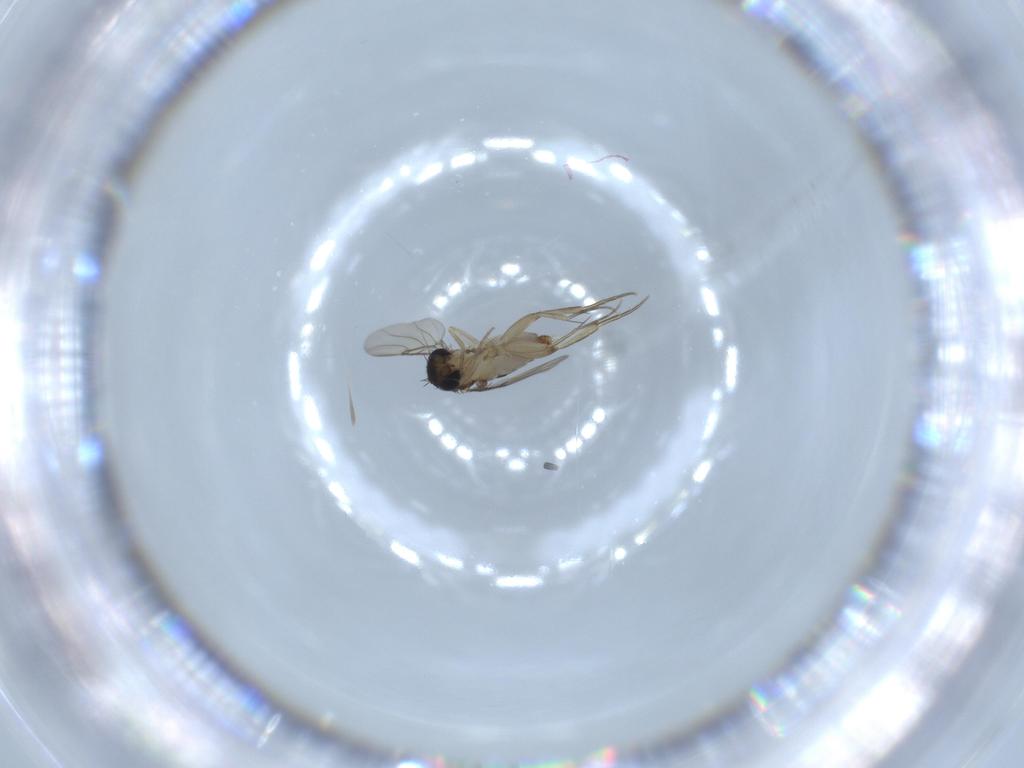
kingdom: Animalia
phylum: Arthropoda
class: Insecta
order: Diptera
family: Phoridae
